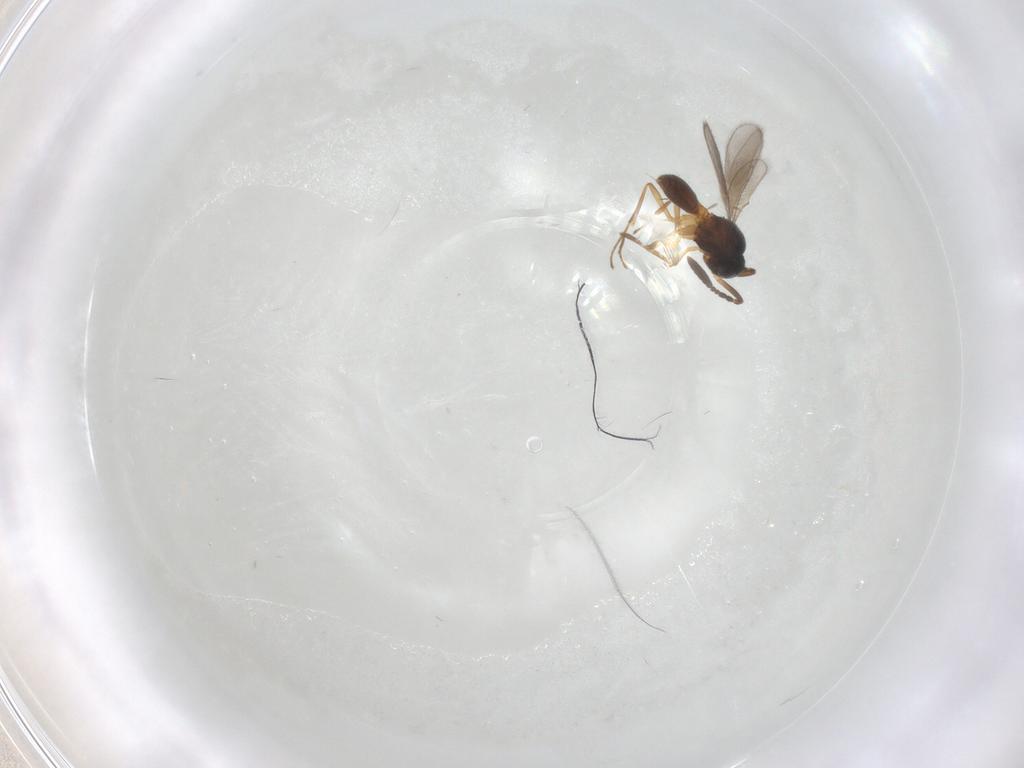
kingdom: Animalia
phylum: Arthropoda
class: Insecta
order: Hymenoptera
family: Scelionidae
